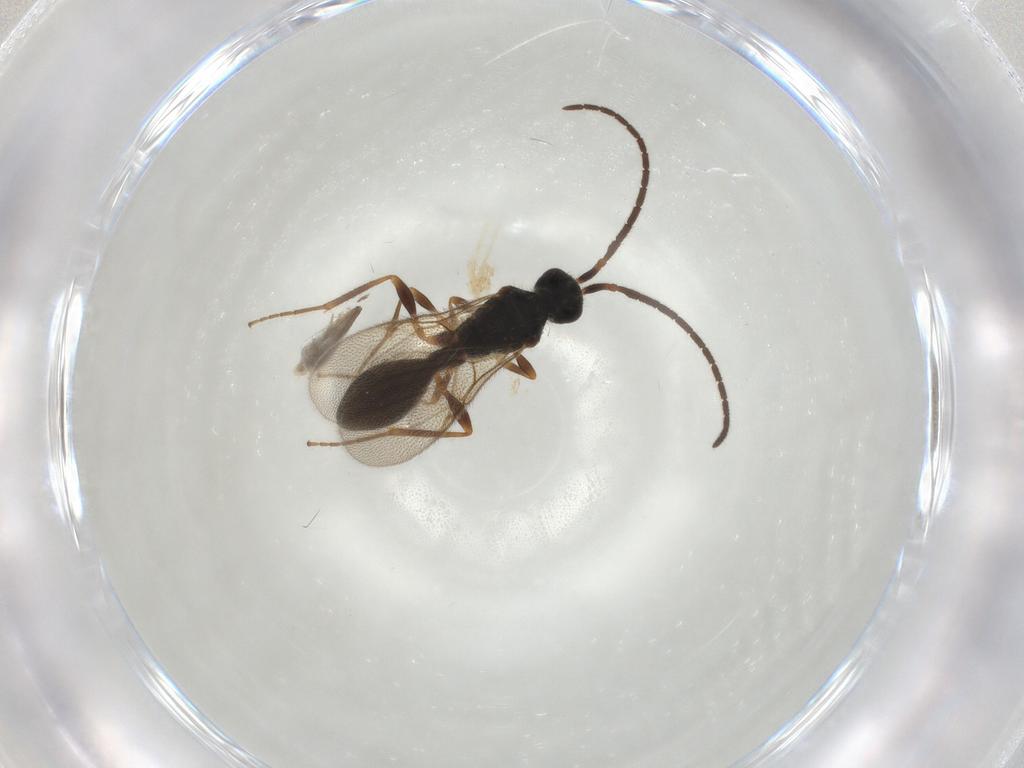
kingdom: Animalia
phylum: Arthropoda
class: Insecta
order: Hymenoptera
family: Diapriidae
